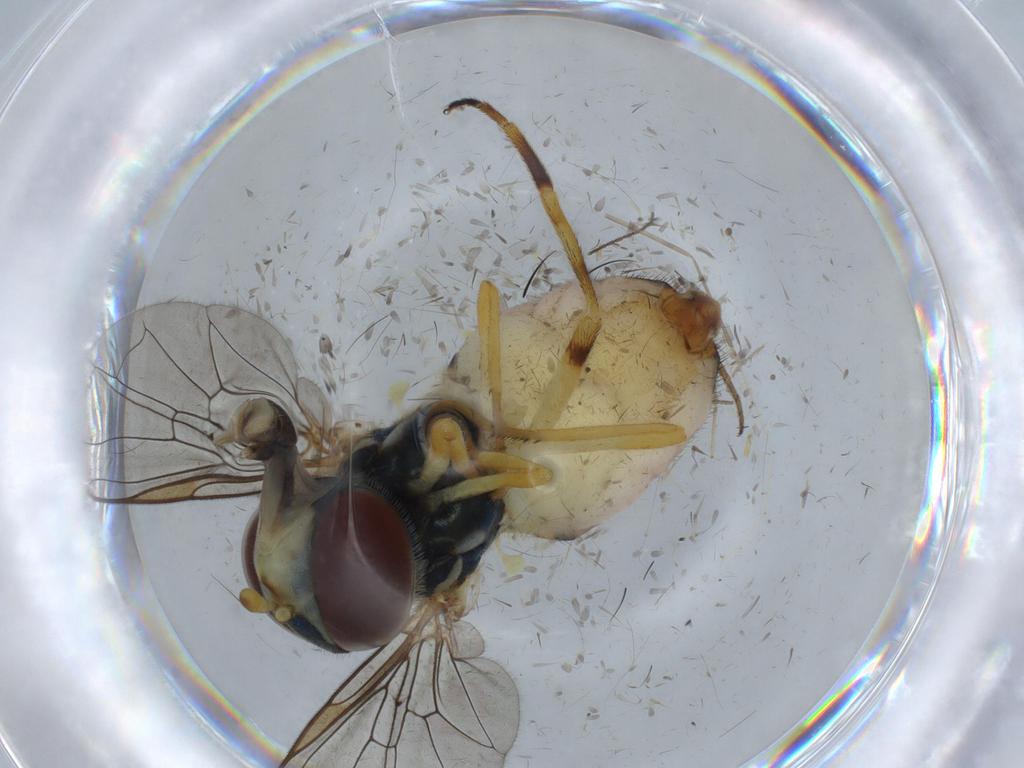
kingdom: Animalia
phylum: Arthropoda
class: Insecta
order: Diptera
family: Syrphidae
